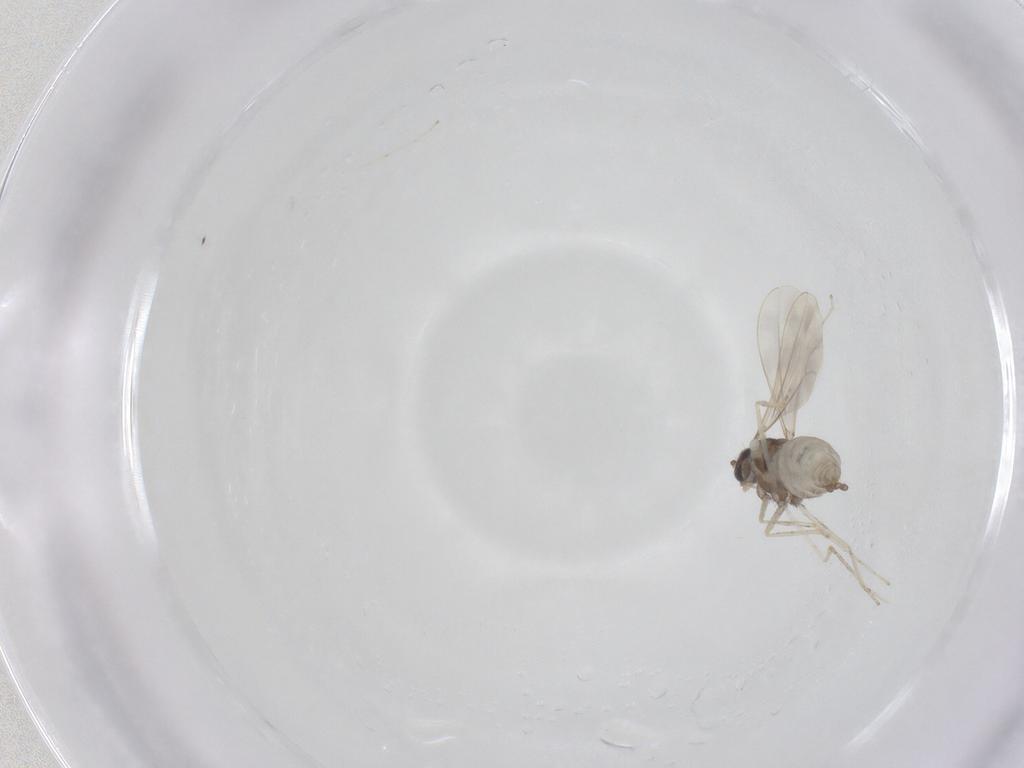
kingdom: Animalia
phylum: Arthropoda
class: Insecta
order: Diptera
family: Cecidomyiidae
